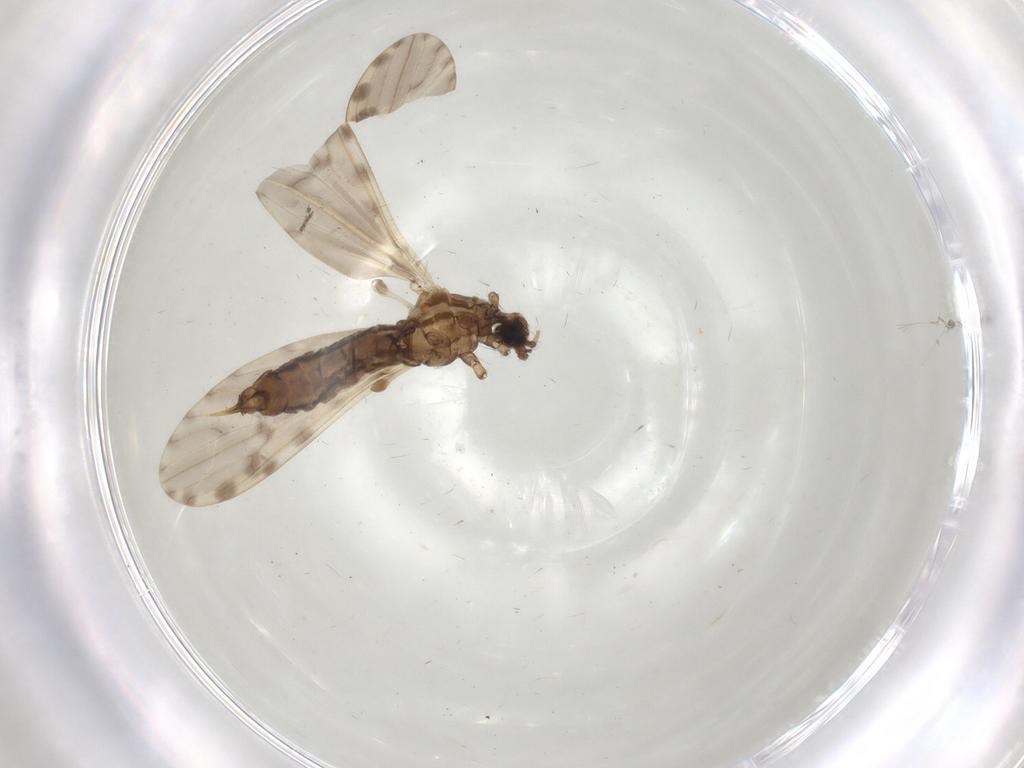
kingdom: Animalia
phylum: Arthropoda
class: Insecta
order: Diptera
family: Limoniidae
